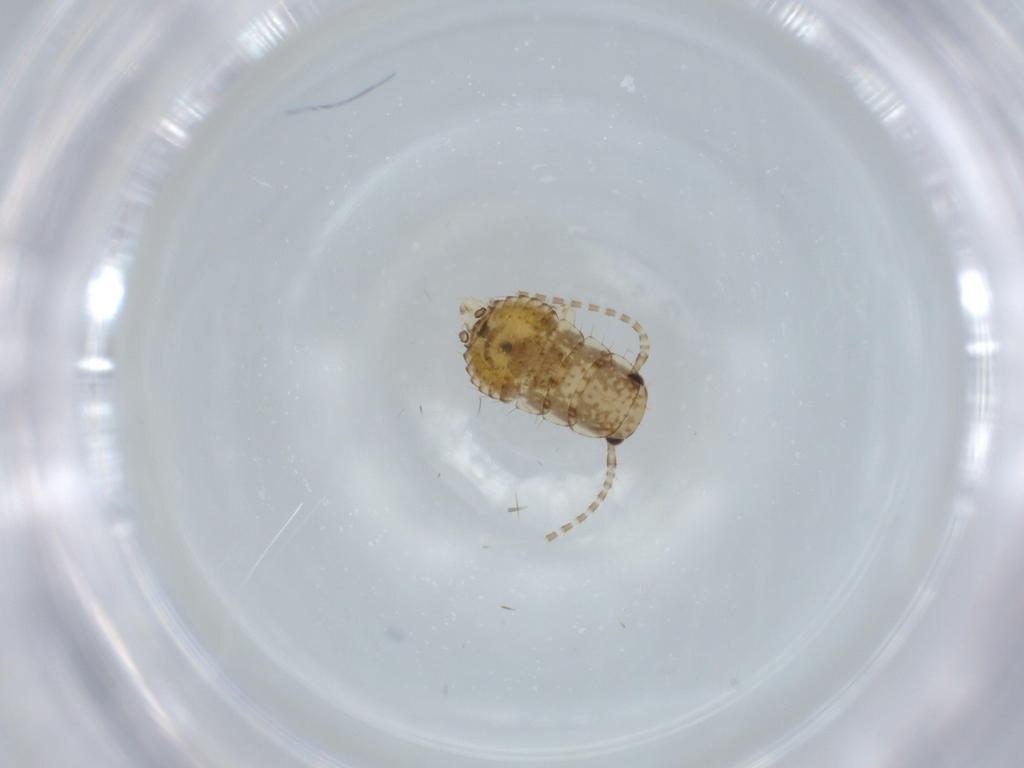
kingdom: Animalia
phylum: Arthropoda
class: Insecta
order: Blattodea
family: Ectobiidae
